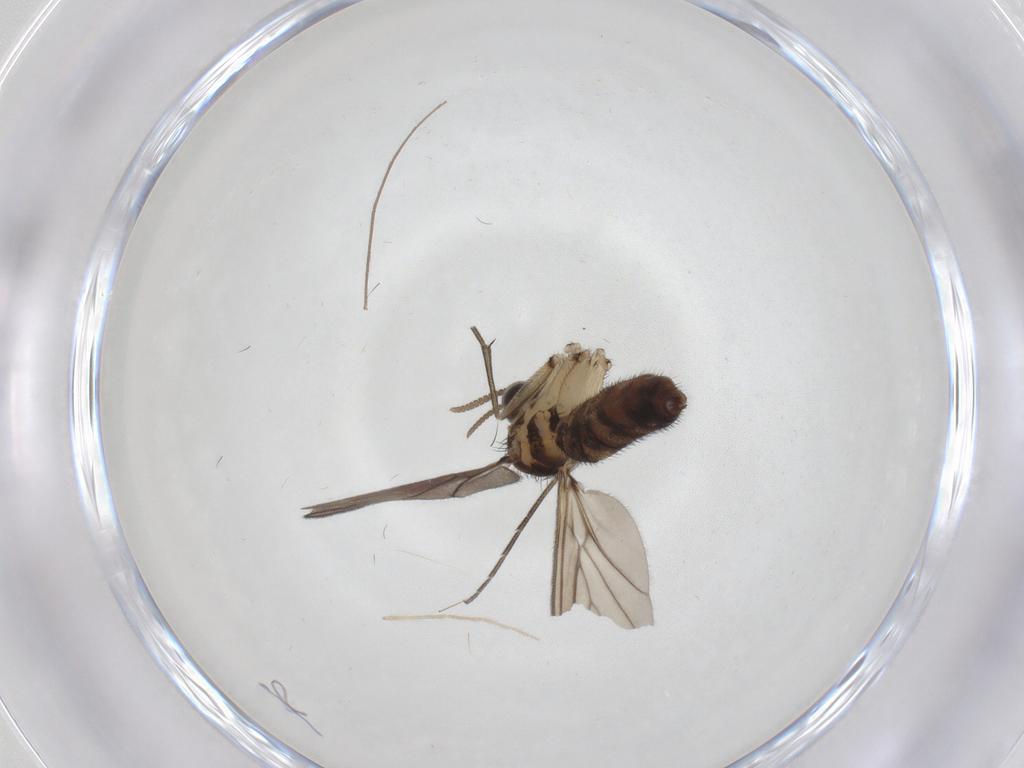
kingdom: Animalia
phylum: Arthropoda
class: Insecta
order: Diptera
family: Keroplatidae
